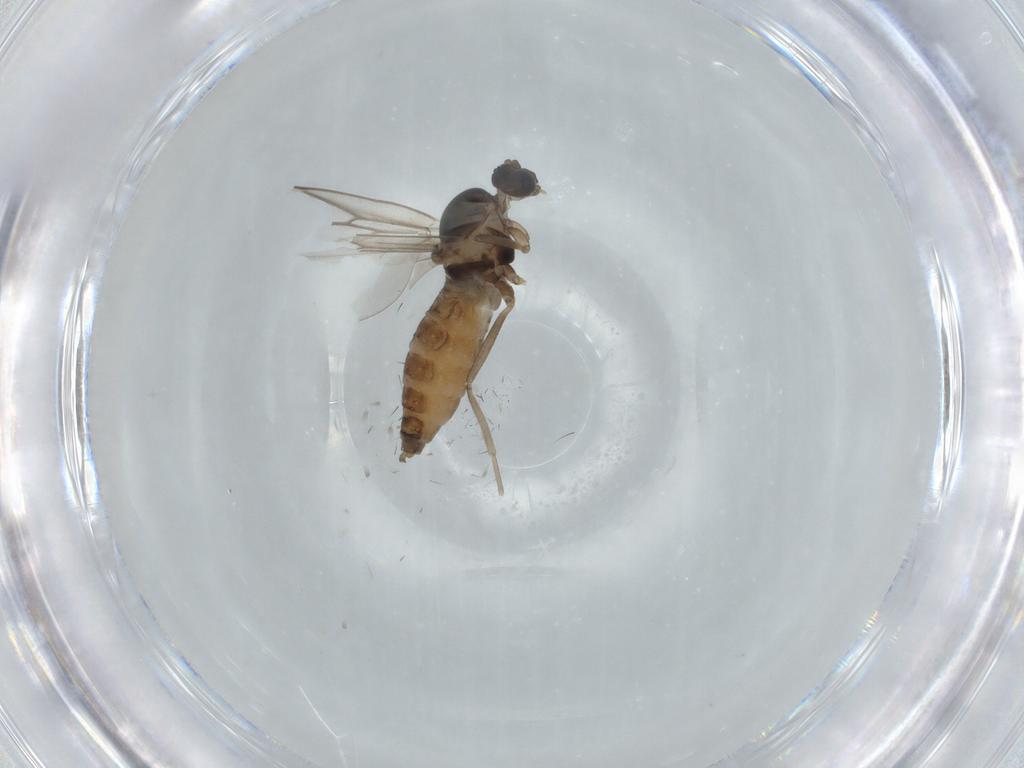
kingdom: Animalia
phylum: Arthropoda
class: Insecta
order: Diptera
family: Cecidomyiidae
